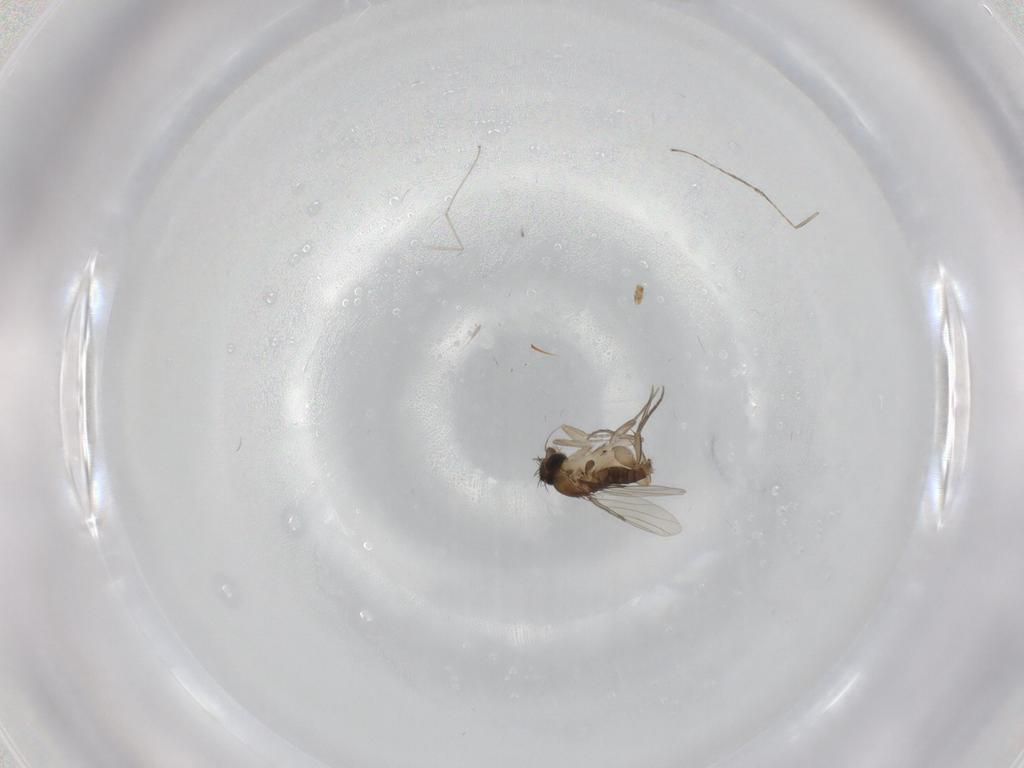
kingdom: Animalia
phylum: Arthropoda
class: Insecta
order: Diptera
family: Phoridae
